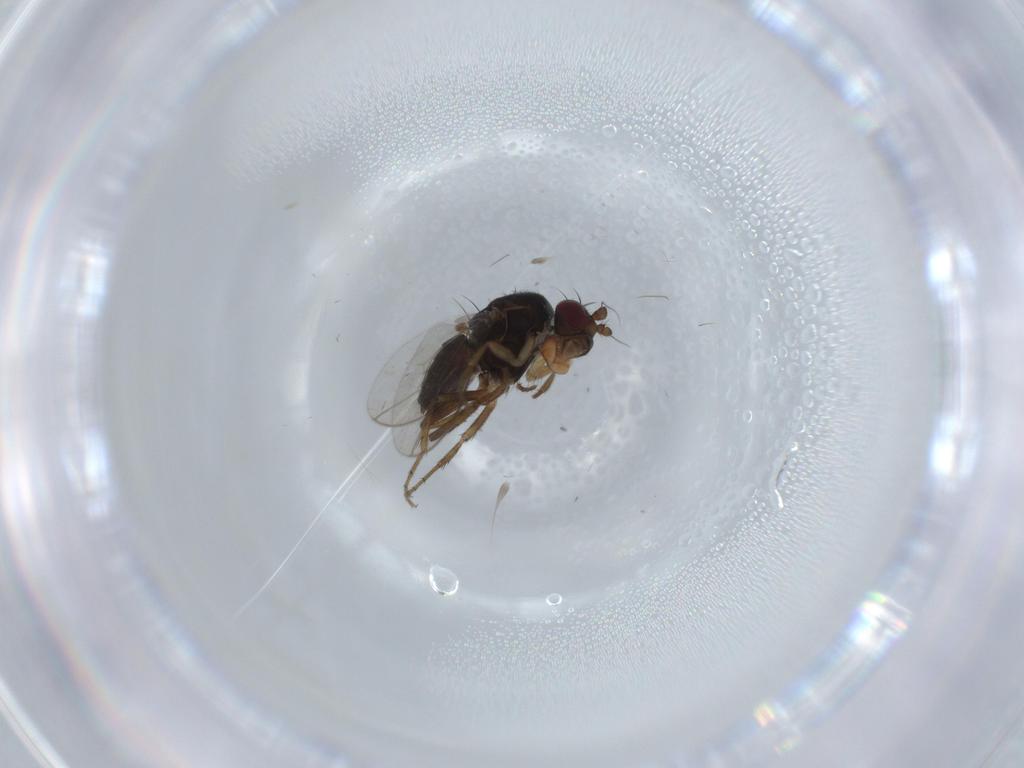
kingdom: Animalia
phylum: Arthropoda
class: Insecta
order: Diptera
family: Sphaeroceridae
